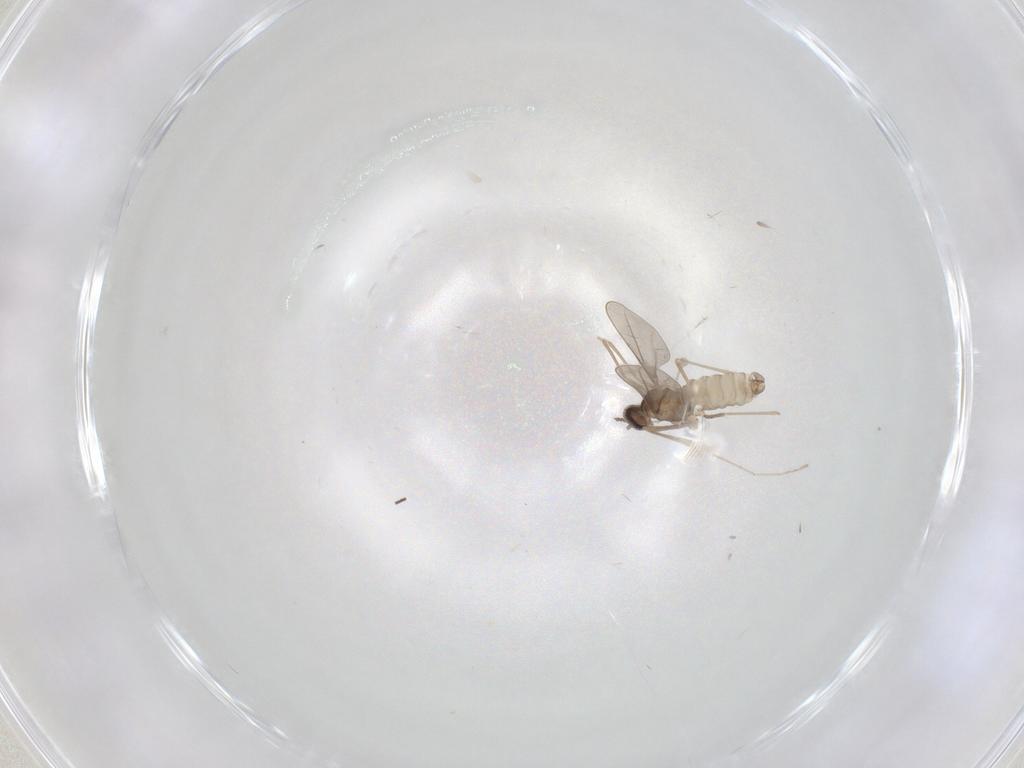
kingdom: Animalia
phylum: Arthropoda
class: Insecta
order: Diptera
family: Cecidomyiidae
